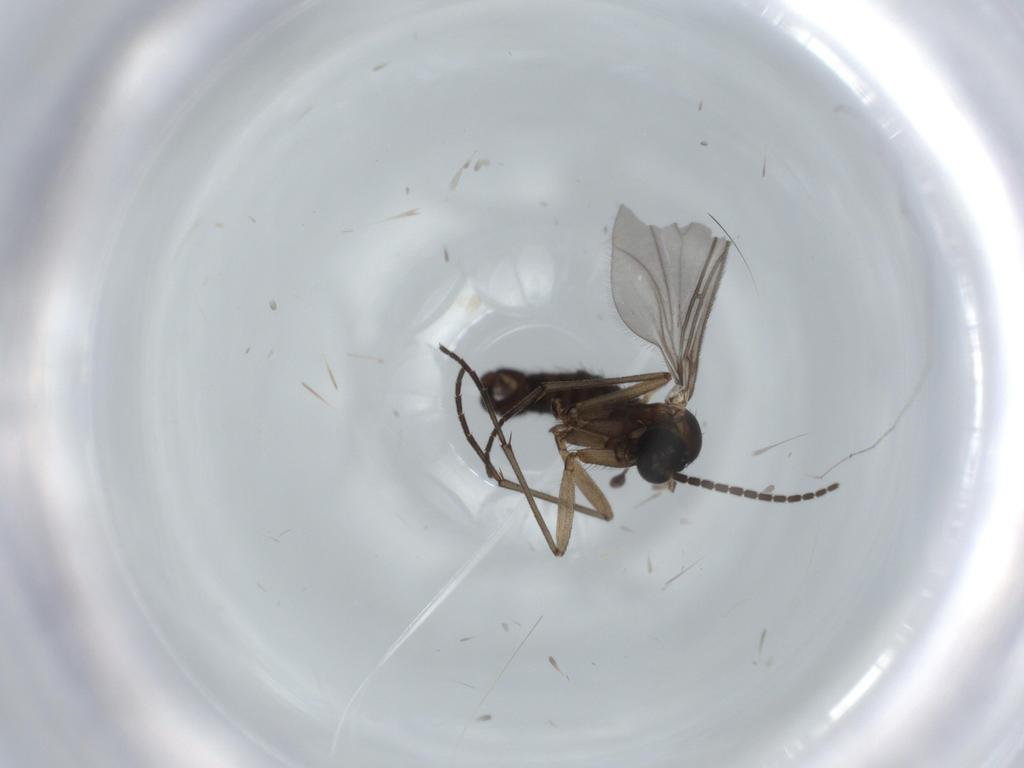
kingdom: Animalia
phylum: Arthropoda
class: Insecta
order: Diptera
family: Sciaridae
